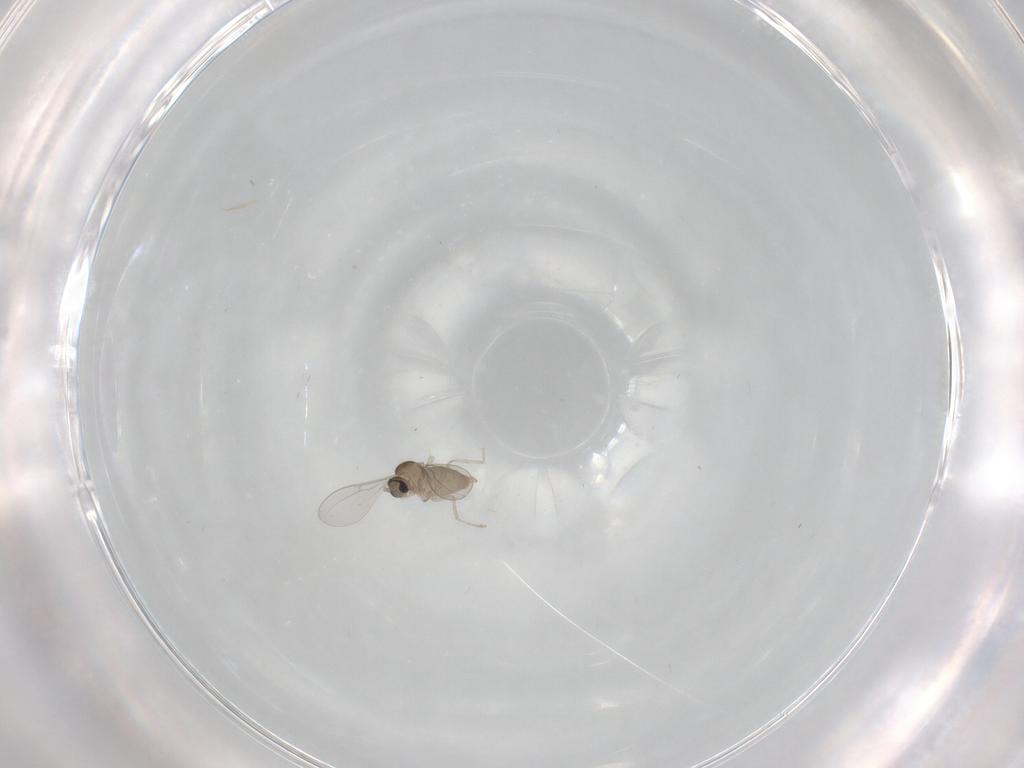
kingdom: Animalia
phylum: Arthropoda
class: Insecta
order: Diptera
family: Cecidomyiidae
